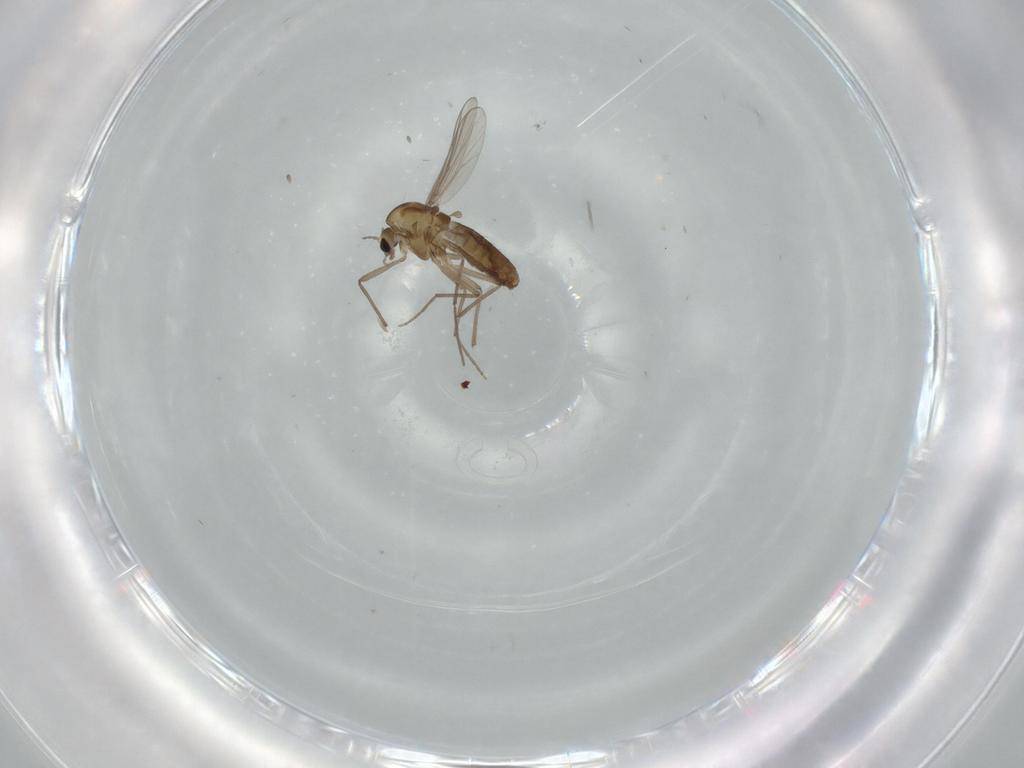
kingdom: Animalia
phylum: Arthropoda
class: Insecta
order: Diptera
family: Chironomidae
